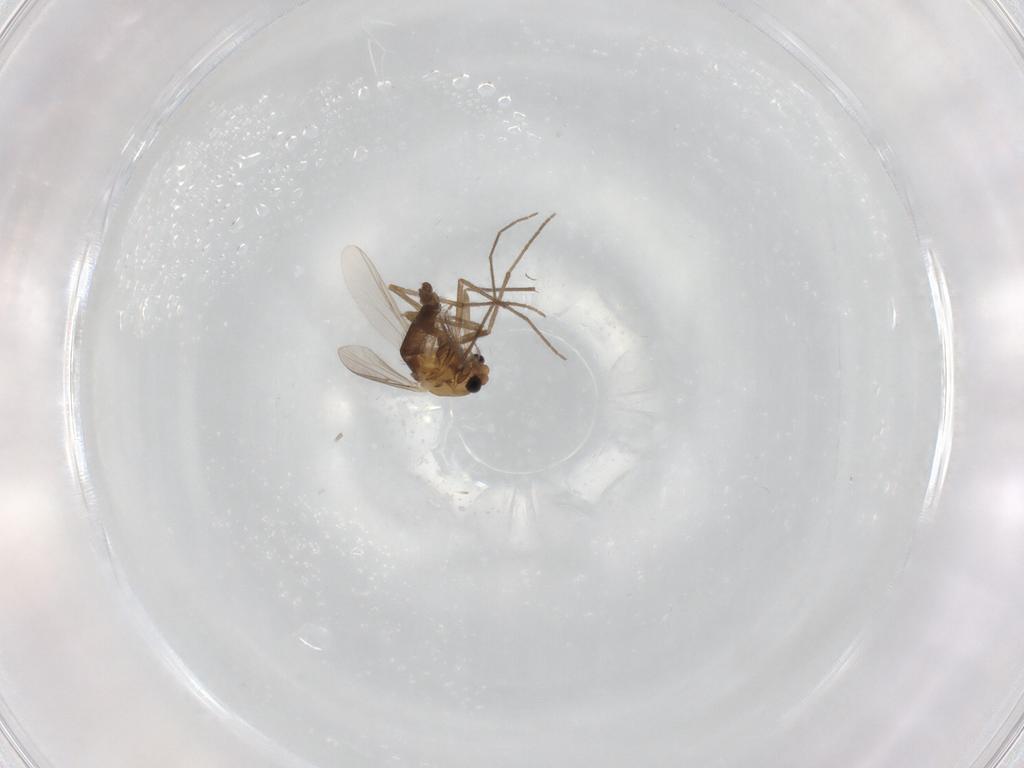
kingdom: Animalia
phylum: Arthropoda
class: Insecta
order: Diptera
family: Chironomidae
